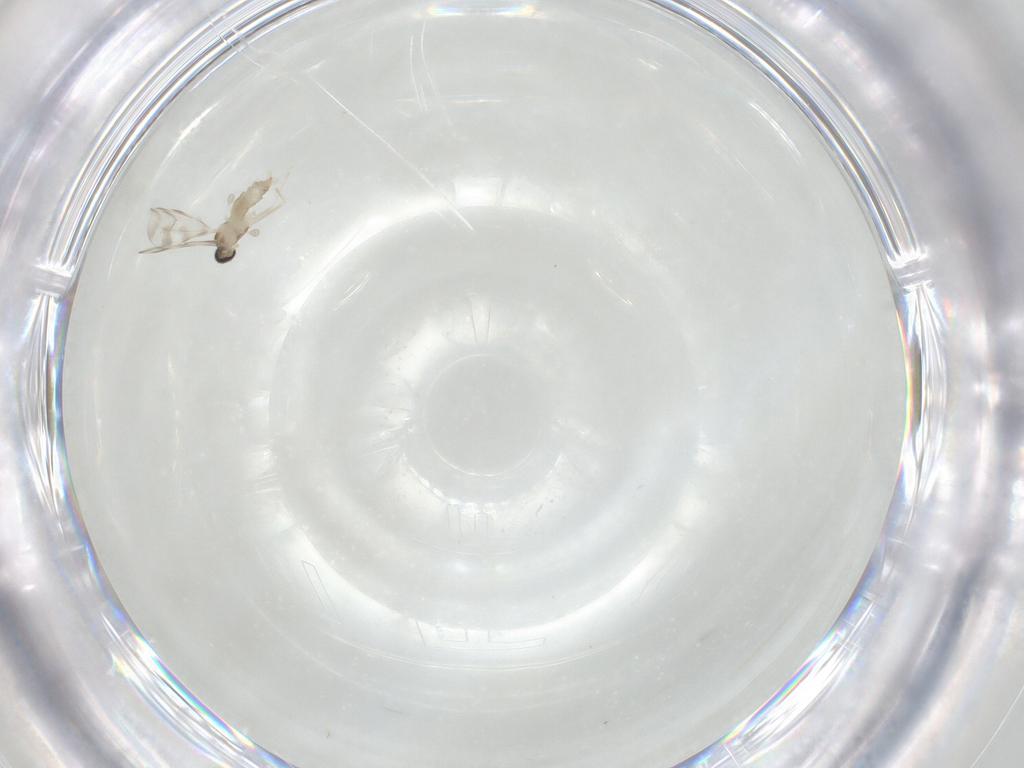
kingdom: Animalia
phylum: Arthropoda
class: Insecta
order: Diptera
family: Cecidomyiidae
